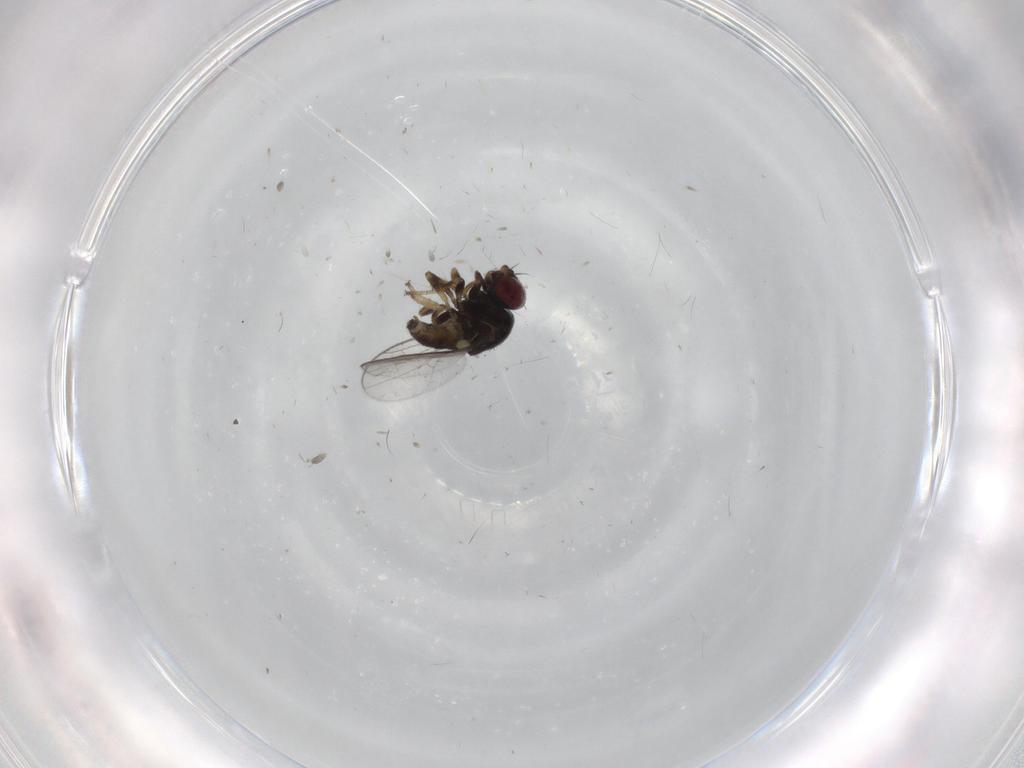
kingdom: Animalia
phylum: Arthropoda
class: Insecta
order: Diptera
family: Chloropidae
